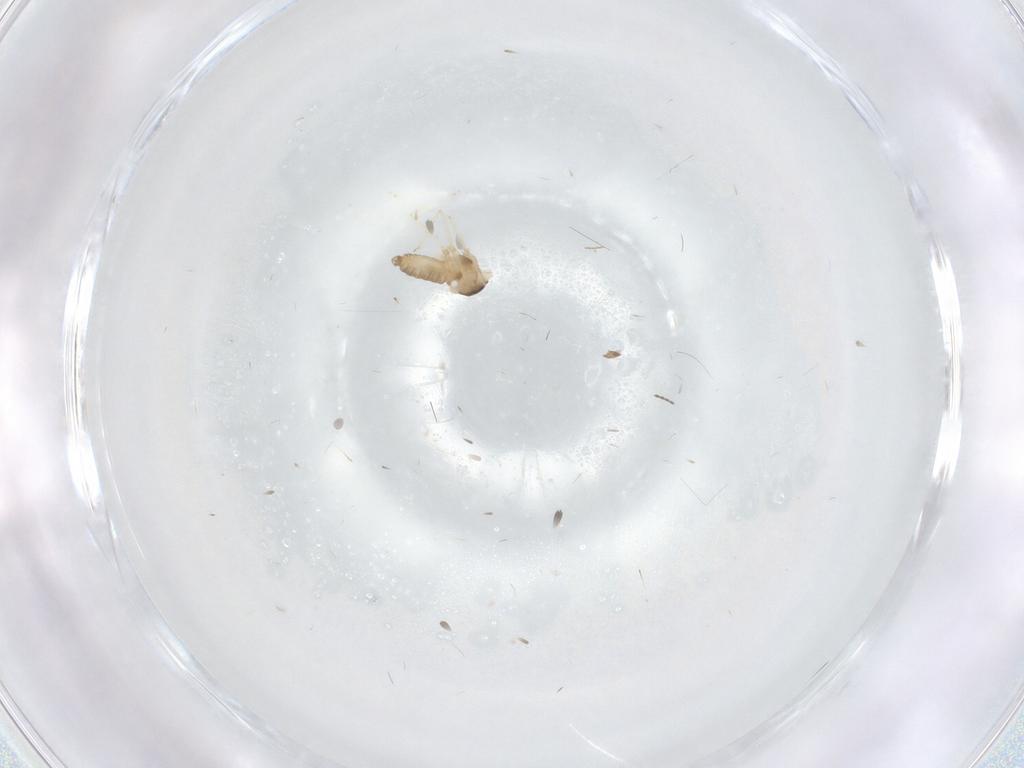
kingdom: Animalia
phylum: Arthropoda
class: Insecta
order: Diptera
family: Cecidomyiidae
